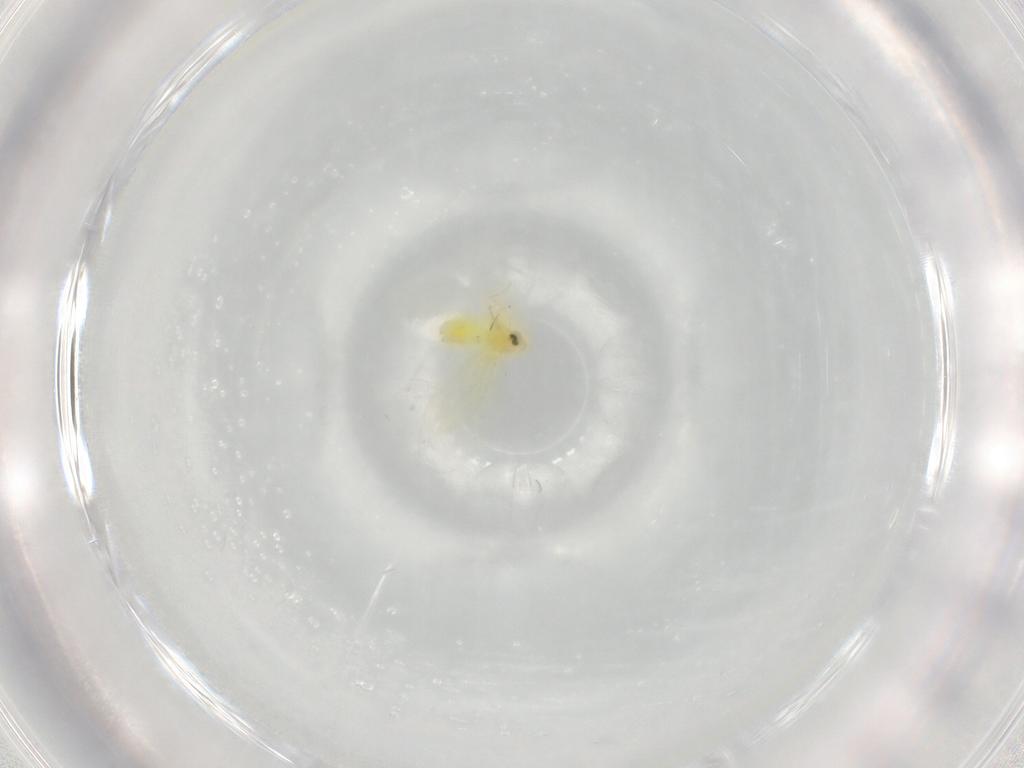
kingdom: Animalia
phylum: Arthropoda
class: Insecta
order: Hemiptera
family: Aleyrodidae
